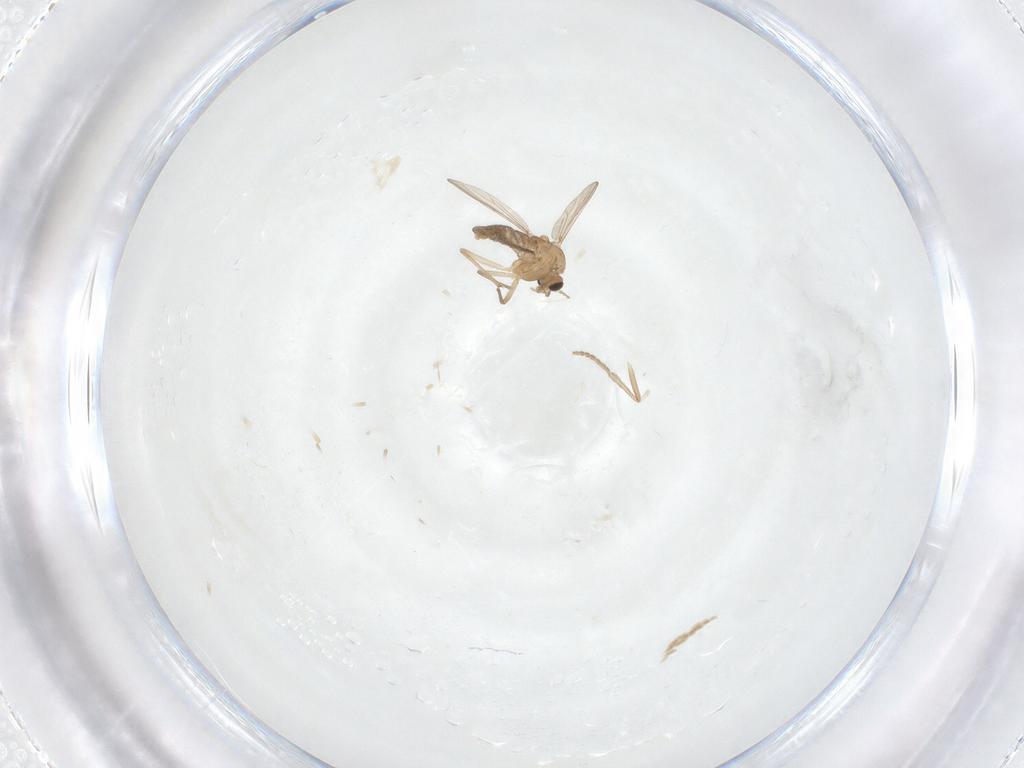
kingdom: Animalia
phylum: Arthropoda
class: Insecta
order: Diptera
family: Psychodidae
